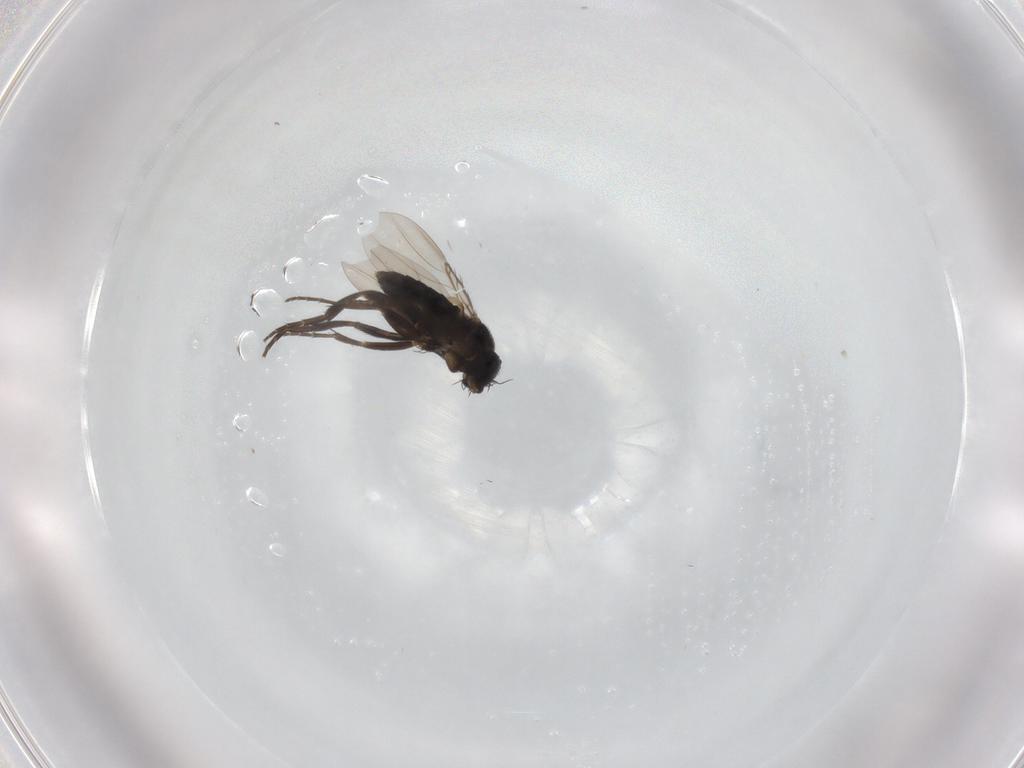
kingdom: Animalia
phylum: Arthropoda
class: Insecta
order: Diptera
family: Phoridae
